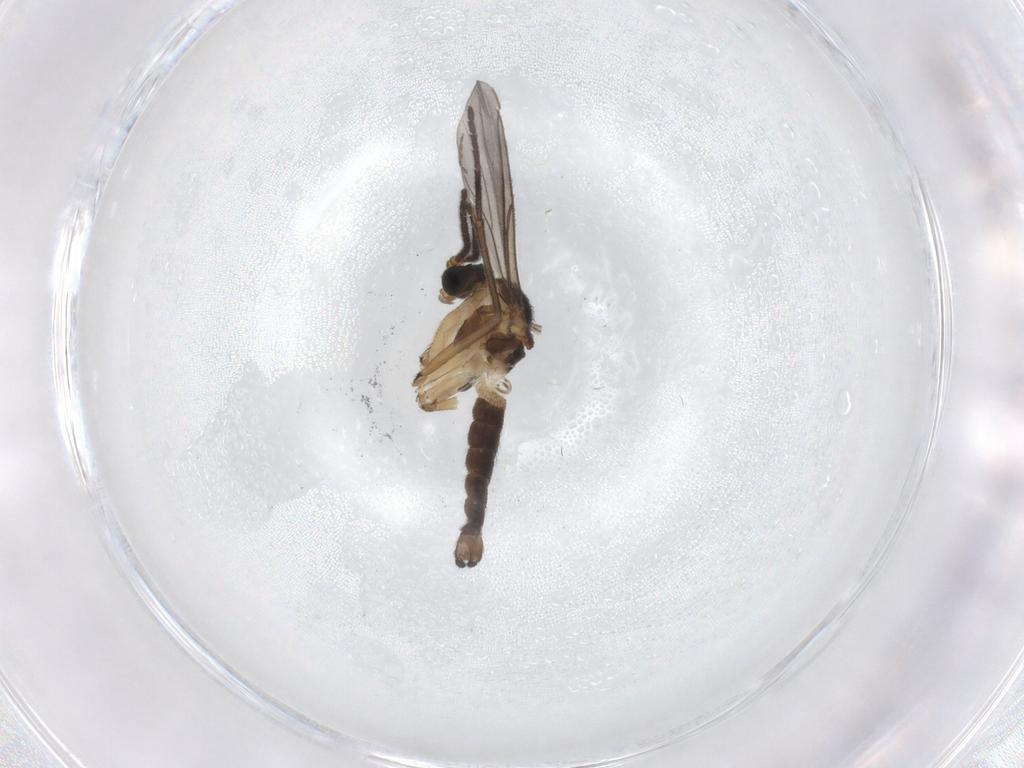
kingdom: Animalia
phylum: Arthropoda
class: Insecta
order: Diptera
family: Sciaridae
